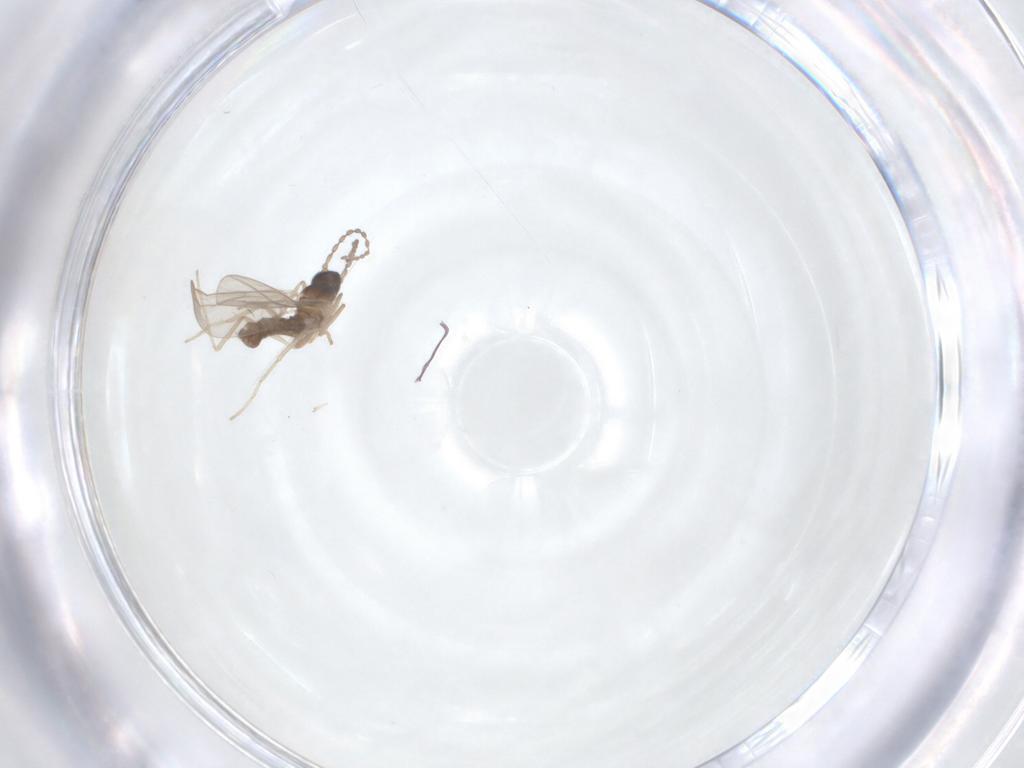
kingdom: Animalia
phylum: Arthropoda
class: Insecta
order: Diptera
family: Cecidomyiidae
